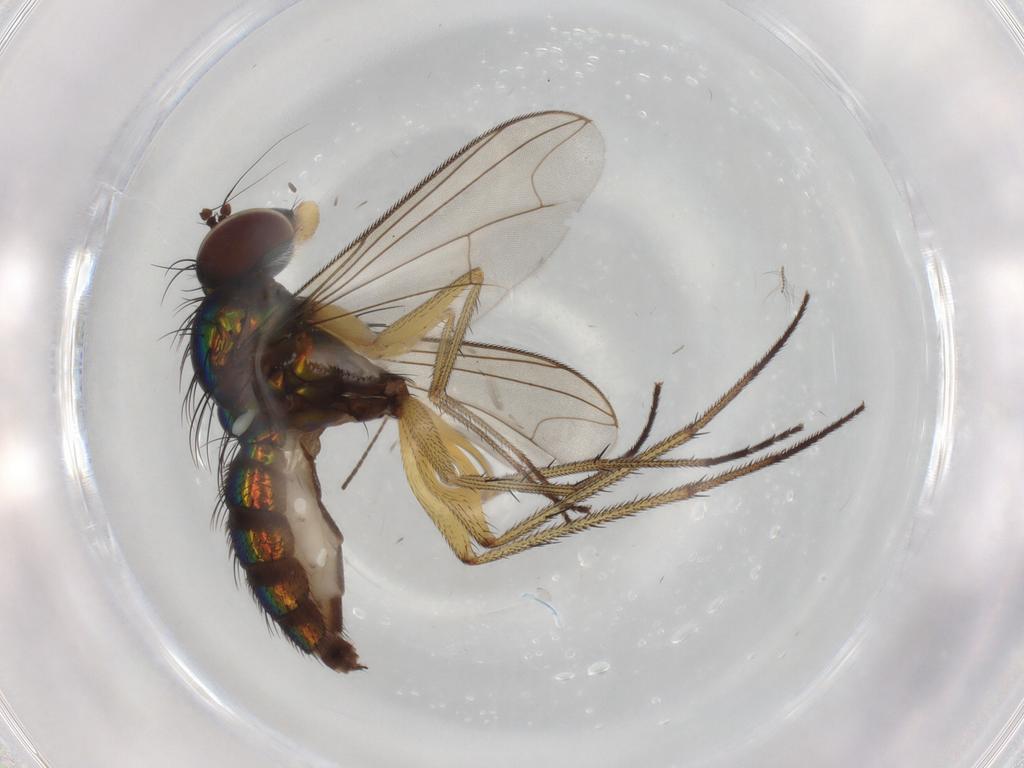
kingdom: Animalia
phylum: Arthropoda
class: Insecta
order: Diptera
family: Dolichopodidae
